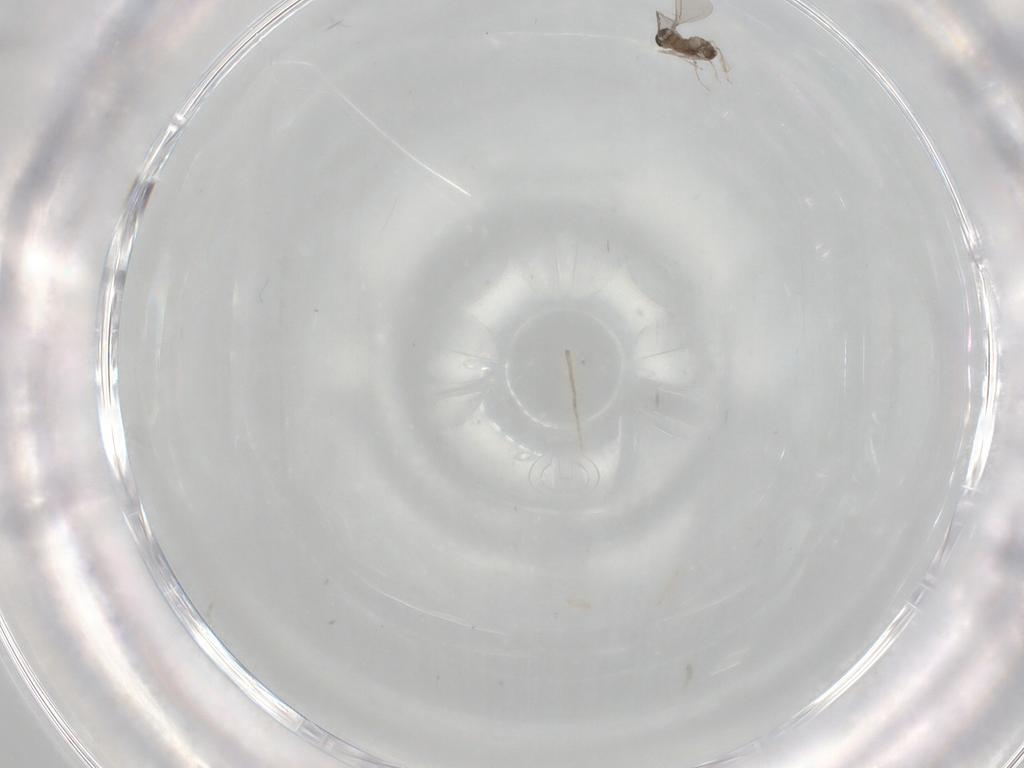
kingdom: Animalia
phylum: Arthropoda
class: Insecta
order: Diptera
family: Cecidomyiidae
